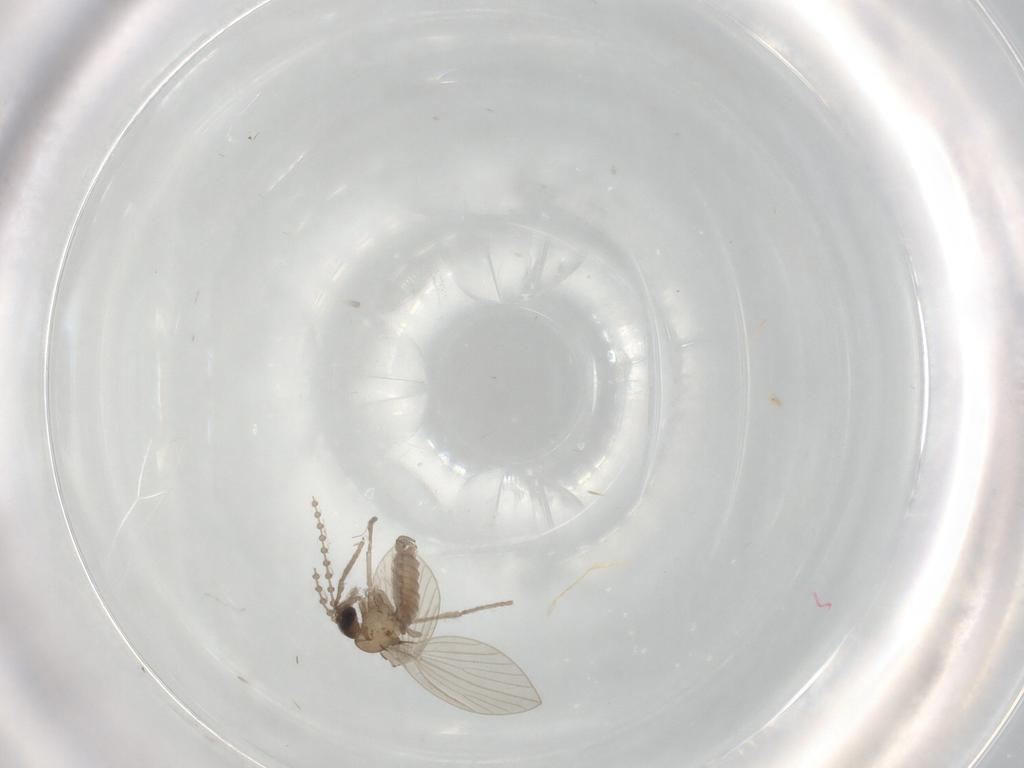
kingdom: Animalia
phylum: Arthropoda
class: Insecta
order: Diptera
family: Psychodidae
